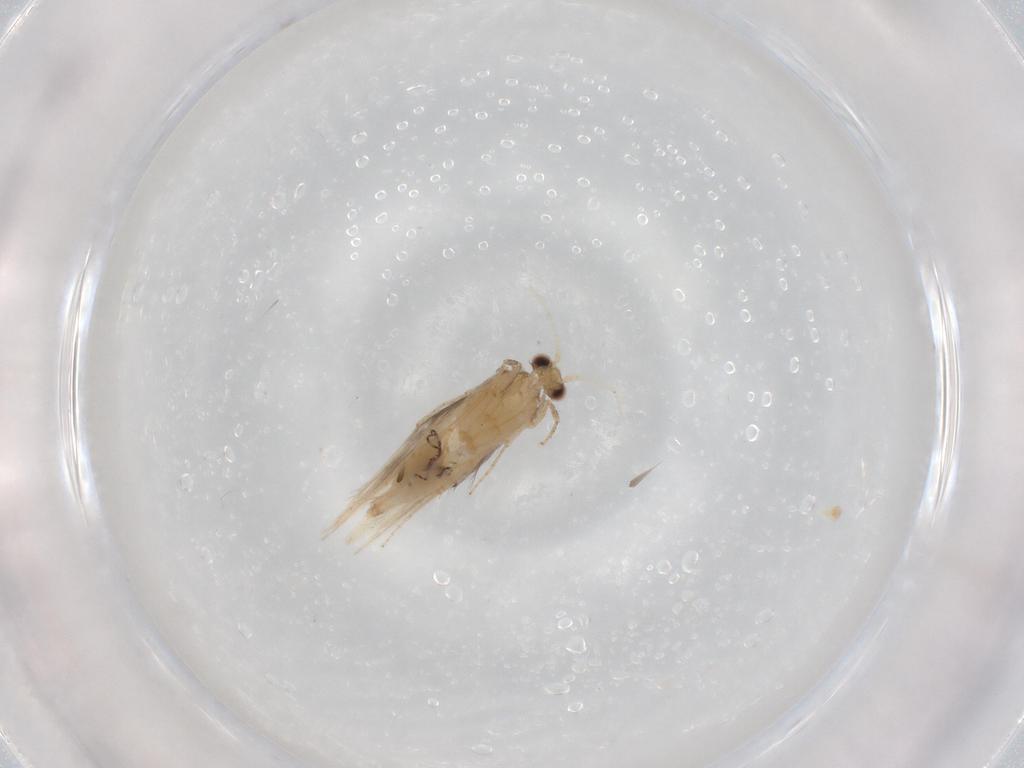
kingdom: Animalia
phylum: Arthropoda
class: Insecta
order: Trichoptera
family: Hydroptilidae
